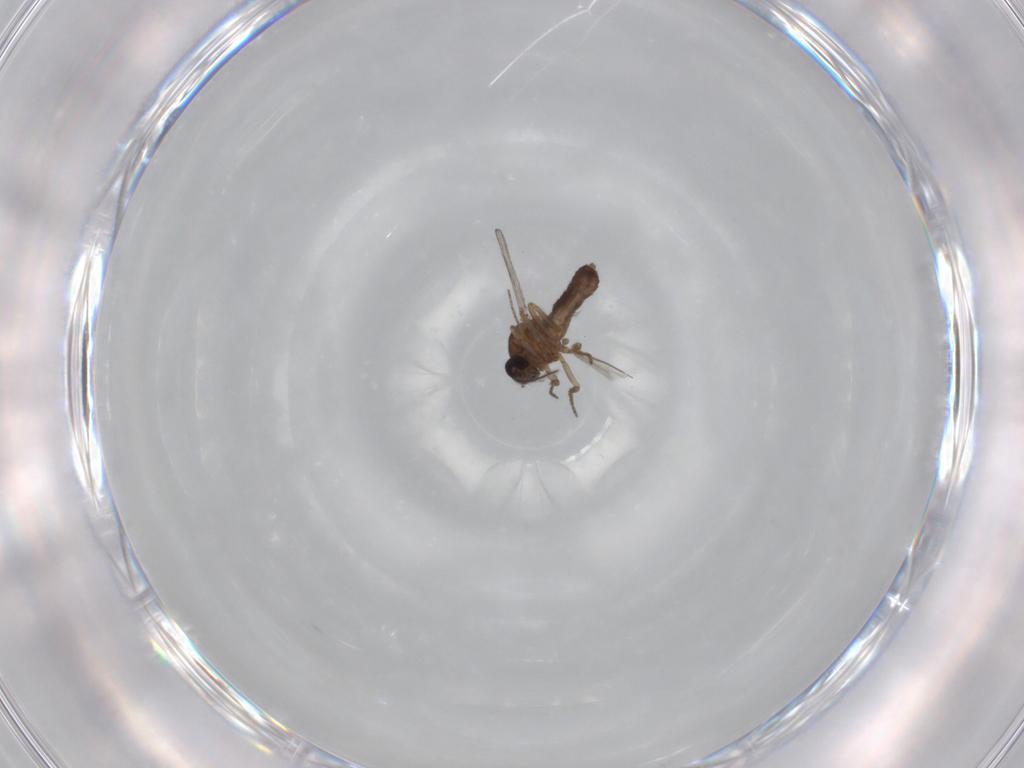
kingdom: Animalia
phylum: Arthropoda
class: Insecta
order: Diptera
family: Ceratopogonidae
